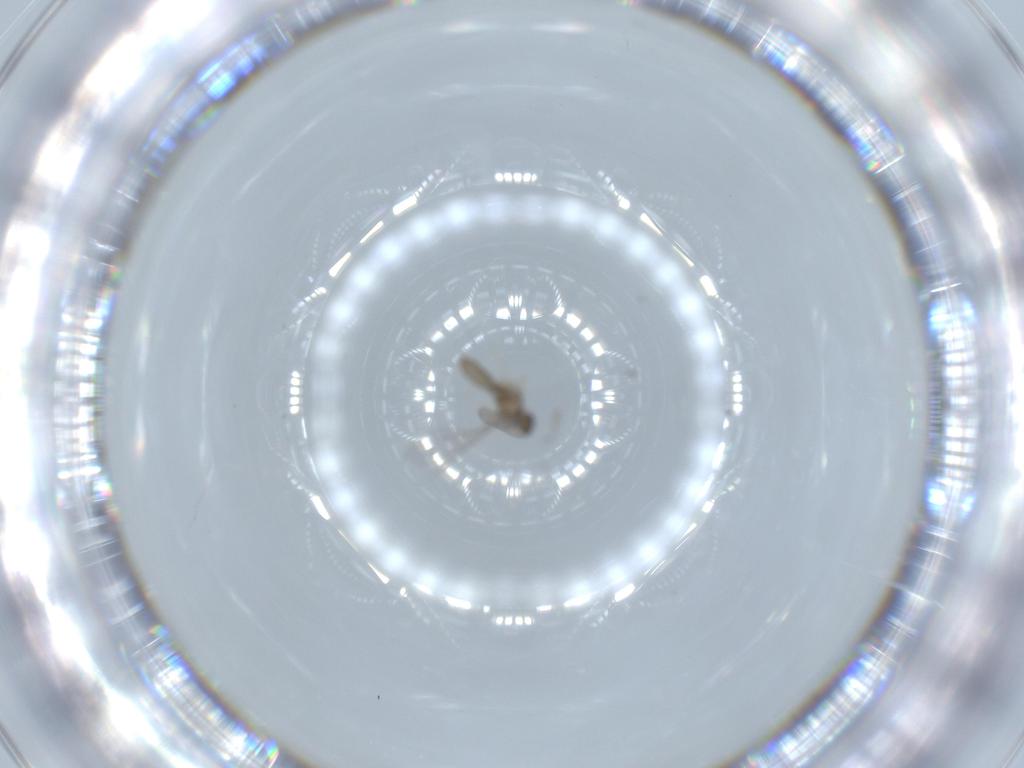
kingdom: Animalia
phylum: Arthropoda
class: Insecta
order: Diptera
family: Cecidomyiidae
